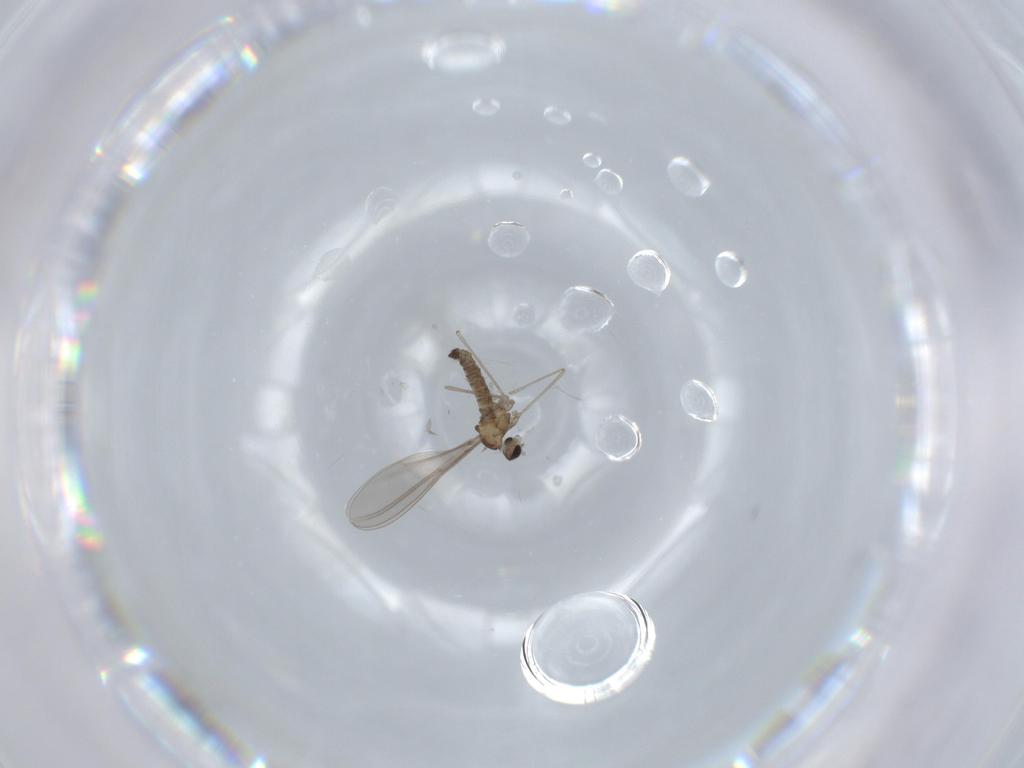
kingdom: Animalia
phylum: Arthropoda
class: Insecta
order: Diptera
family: Cecidomyiidae
